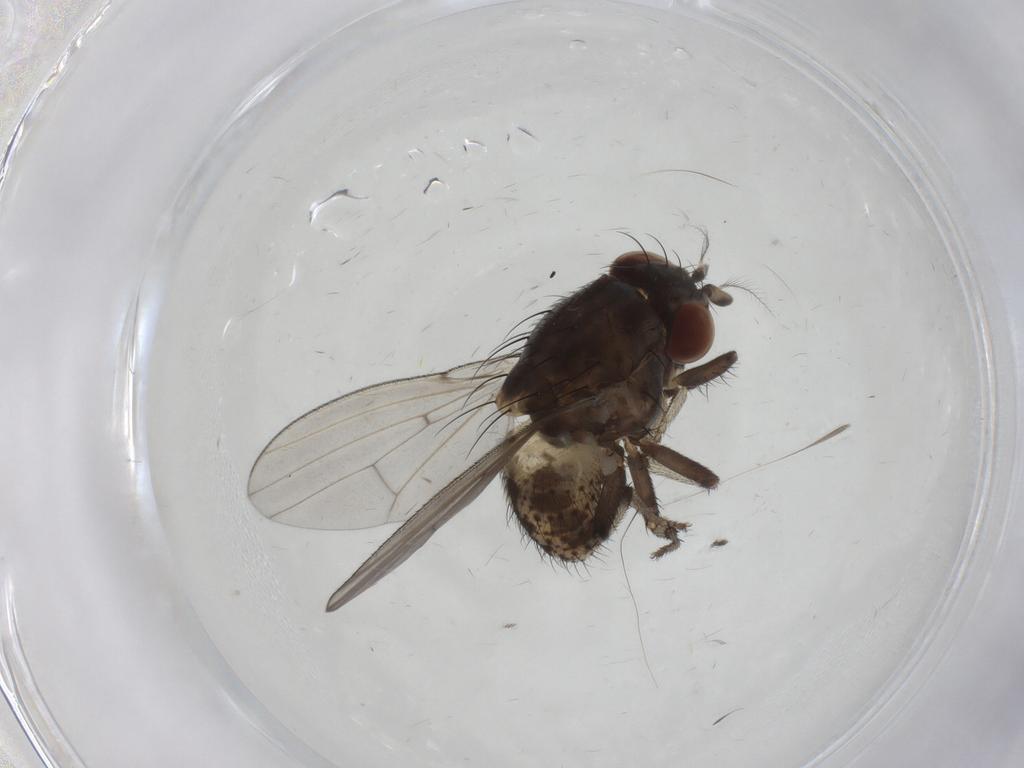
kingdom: Animalia
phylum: Arthropoda
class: Insecta
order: Diptera
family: Lauxaniidae
